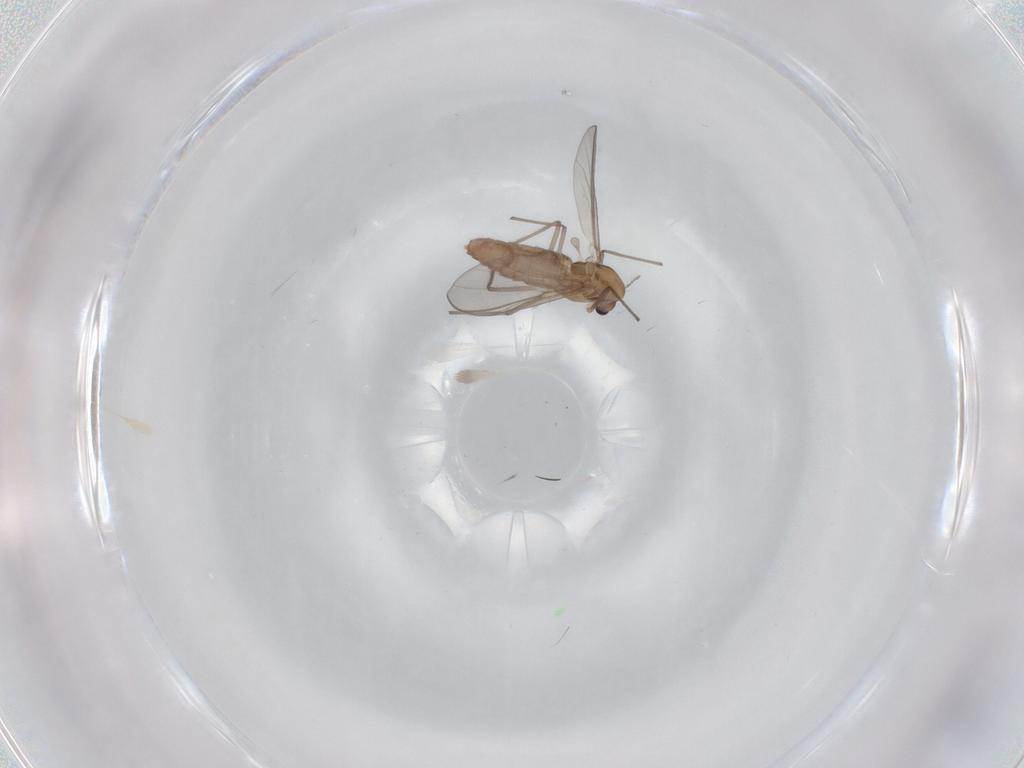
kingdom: Animalia
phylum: Arthropoda
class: Insecta
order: Diptera
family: Chironomidae
